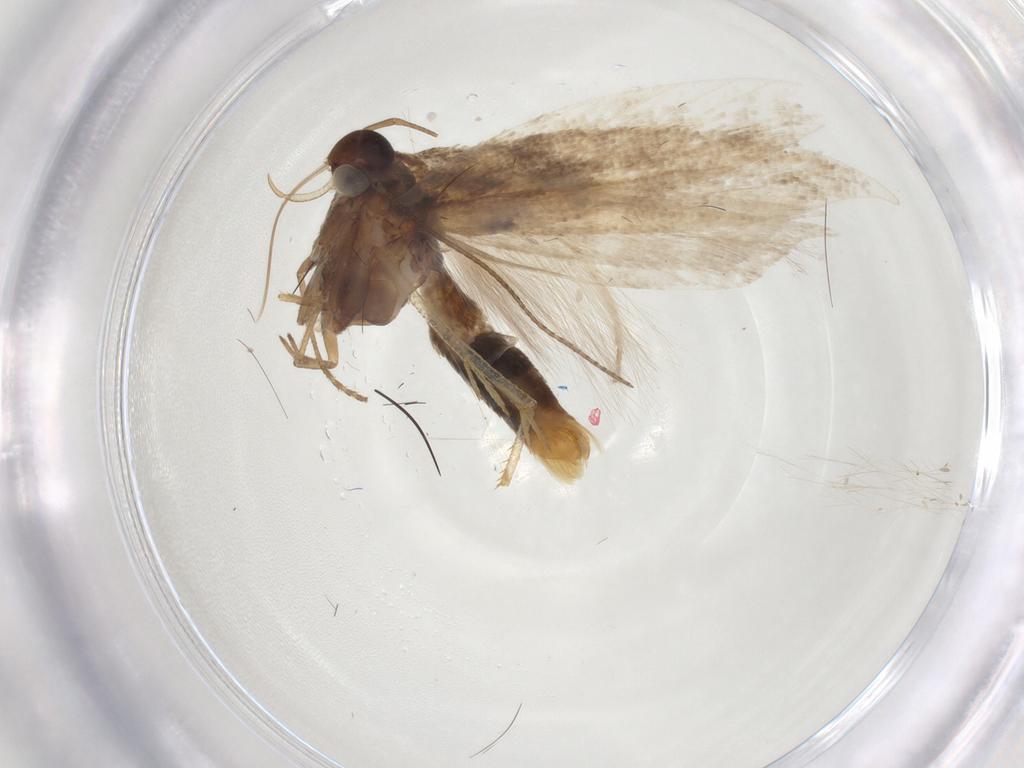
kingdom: Animalia
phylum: Arthropoda
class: Insecta
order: Lepidoptera
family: Gelechiidae
